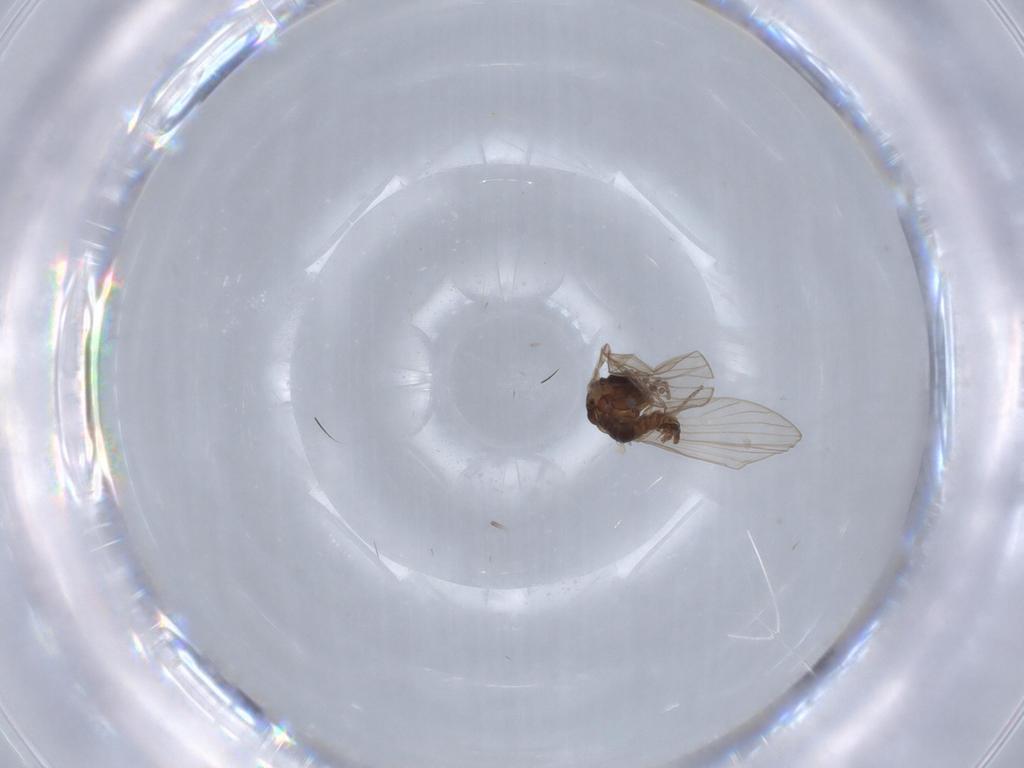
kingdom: Animalia
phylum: Arthropoda
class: Insecta
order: Diptera
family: Psychodidae
